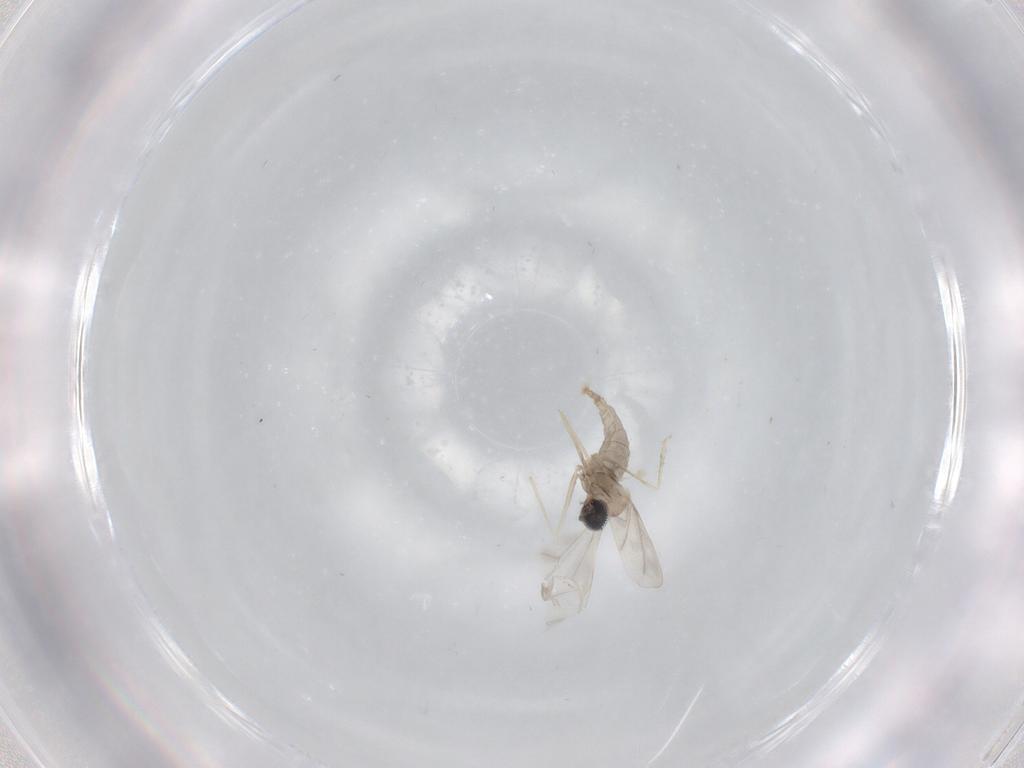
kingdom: Animalia
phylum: Arthropoda
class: Insecta
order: Diptera
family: Cecidomyiidae
